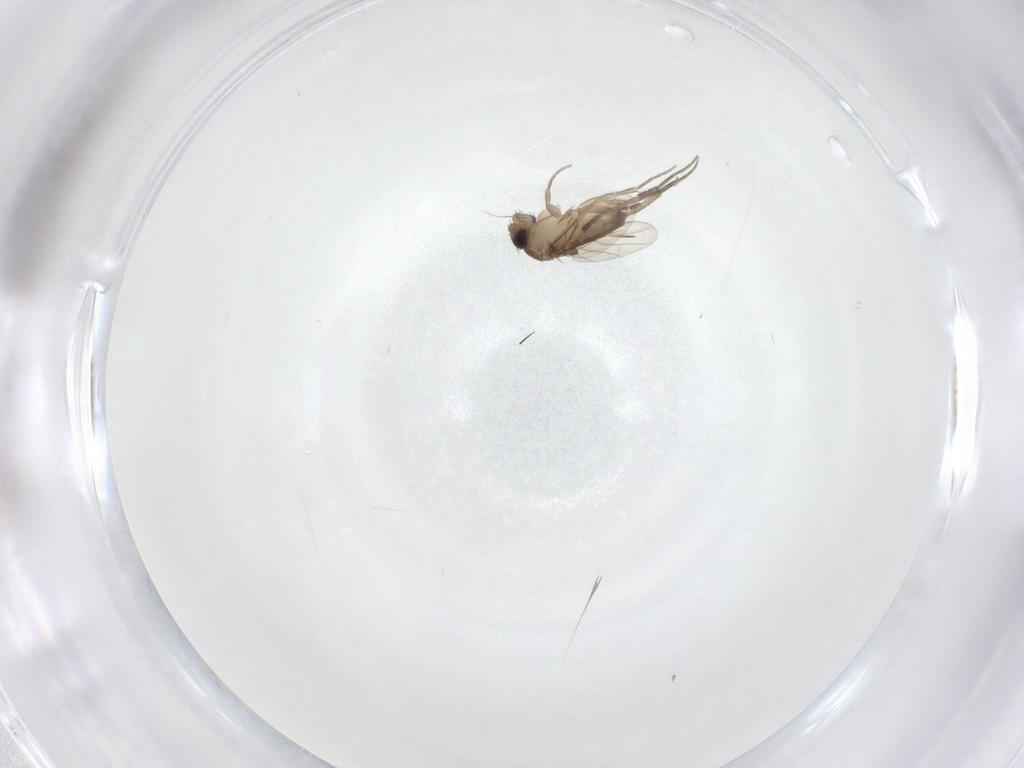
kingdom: Animalia
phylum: Arthropoda
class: Insecta
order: Diptera
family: Phoridae
